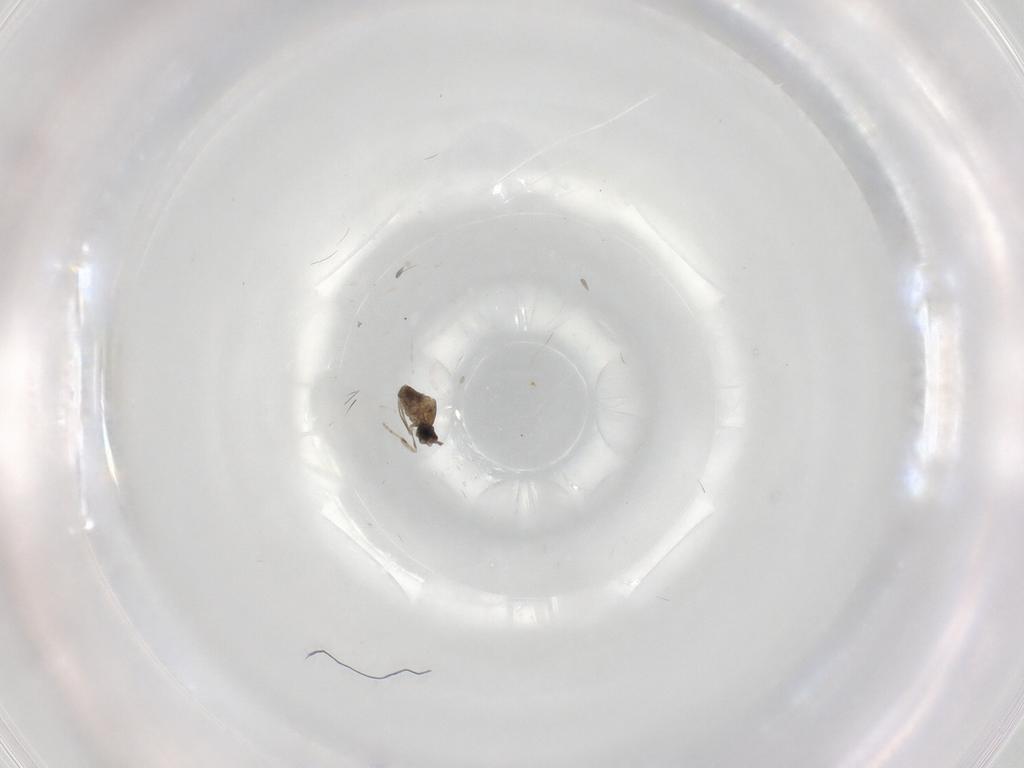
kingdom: Animalia
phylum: Arthropoda
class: Insecta
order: Diptera
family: Cecidomyiidae
